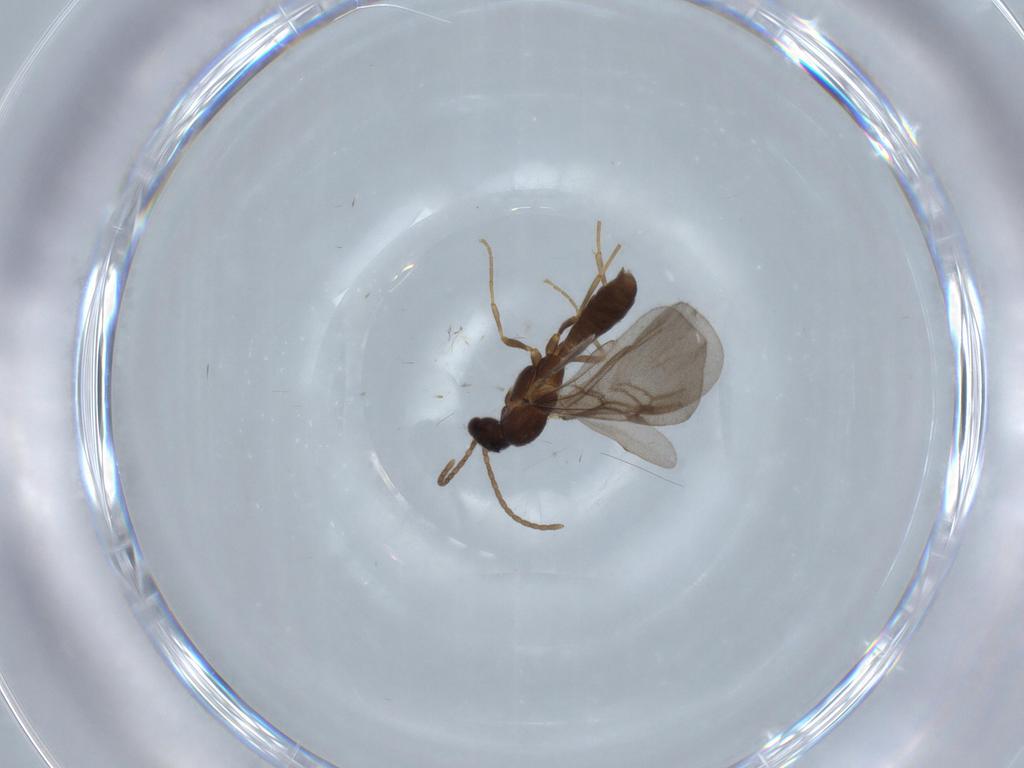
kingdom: Animalia
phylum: Arthropoda
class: Insecta
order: Hymenoptera
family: Formicidae
